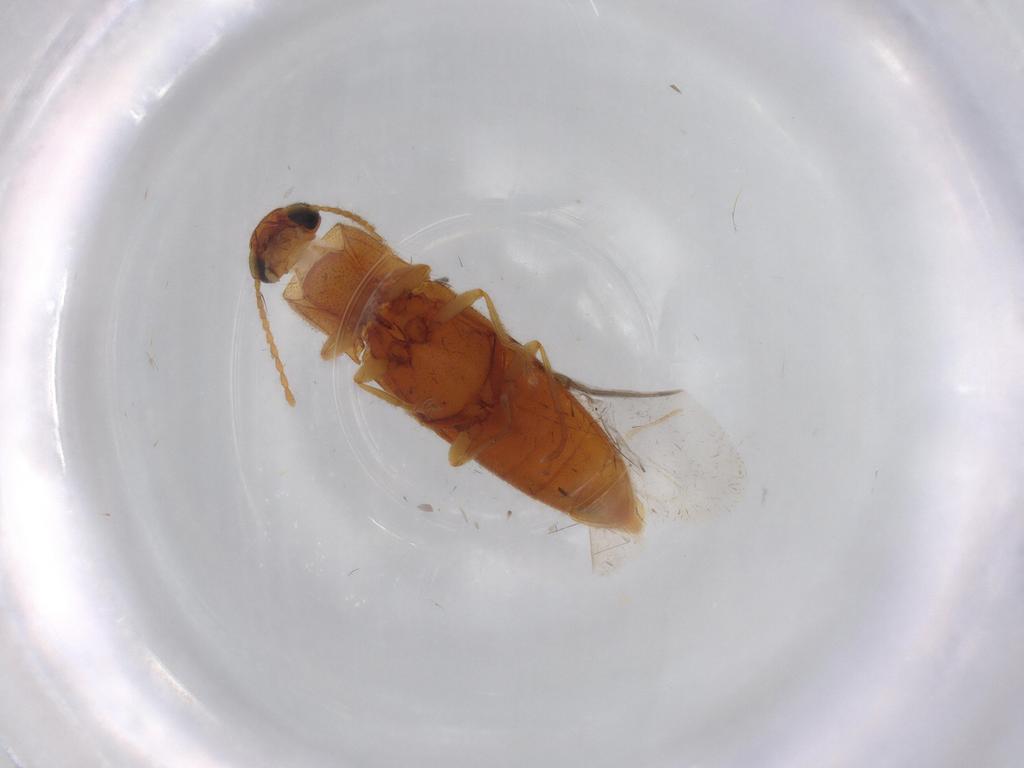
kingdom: Animalia
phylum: Arthropoda
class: Insecta
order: Coleoptera
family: Elateridae
